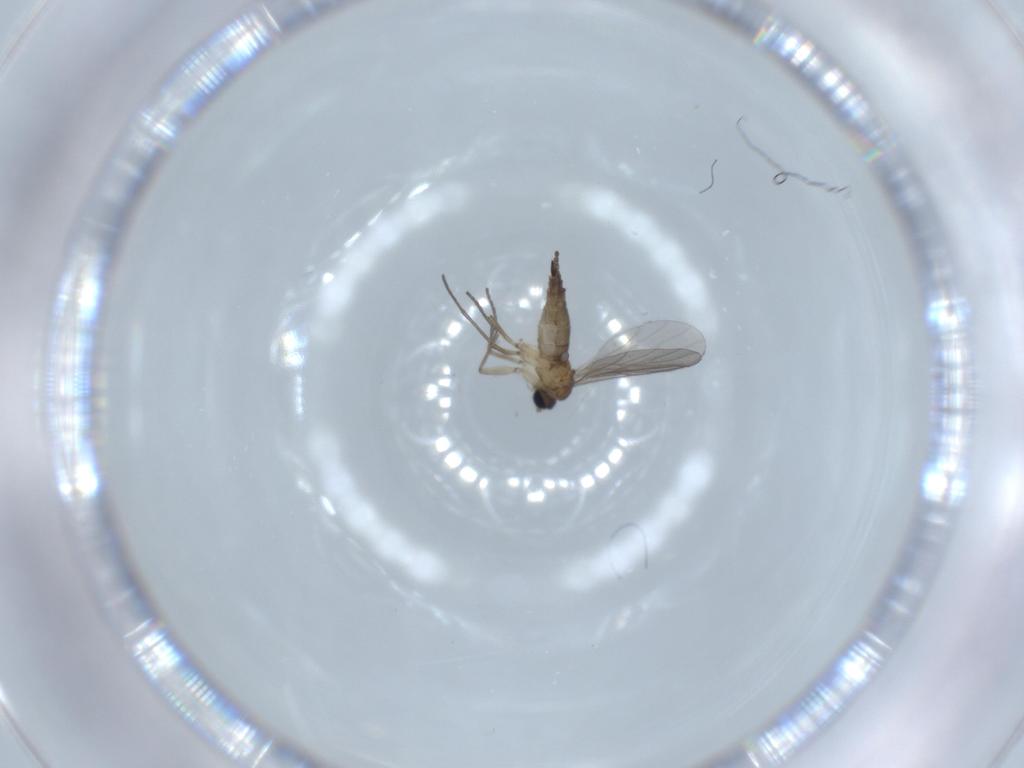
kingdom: Animalia
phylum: Arthropoda
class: Insecta
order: Diptera
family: Sciaridae
